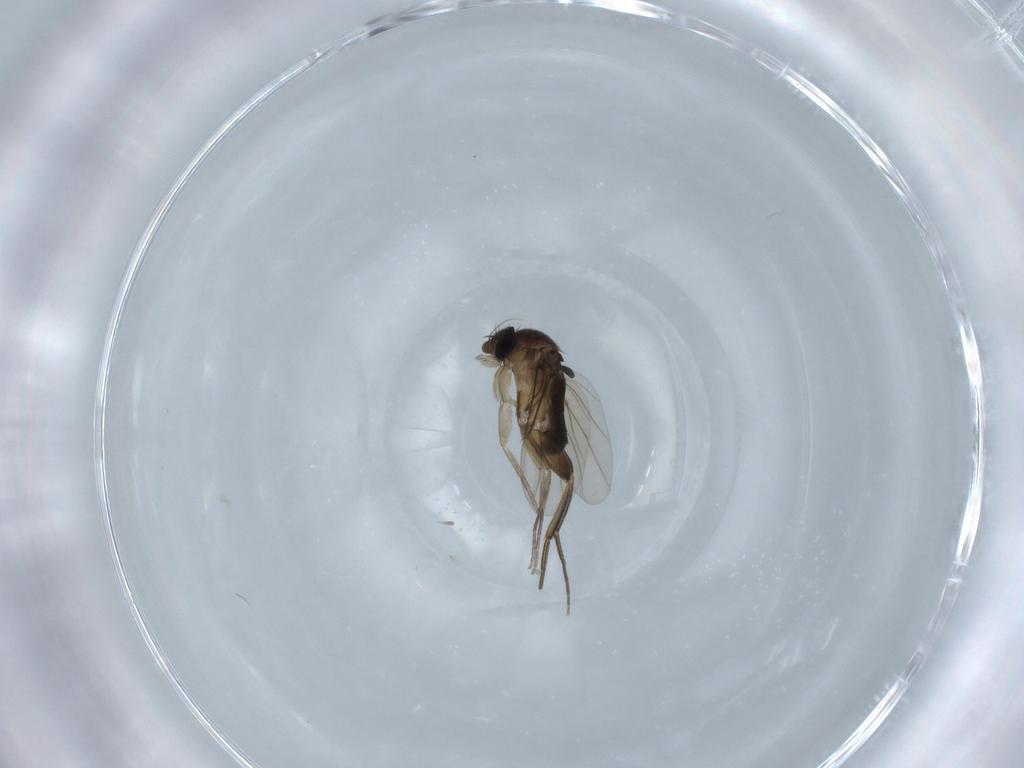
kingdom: Animalia
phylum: Arthropoda
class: Insecta
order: Diptera
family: Phoridae
